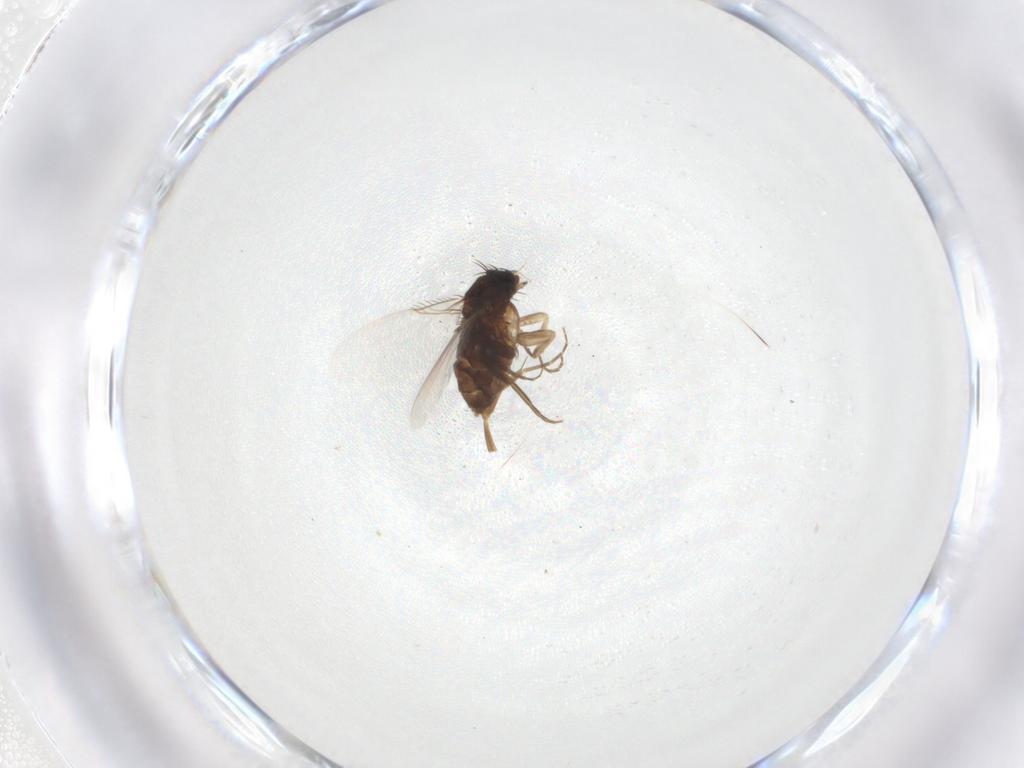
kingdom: Animalia
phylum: Arthropoda
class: Insecta
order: Diptera
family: Phoridae
